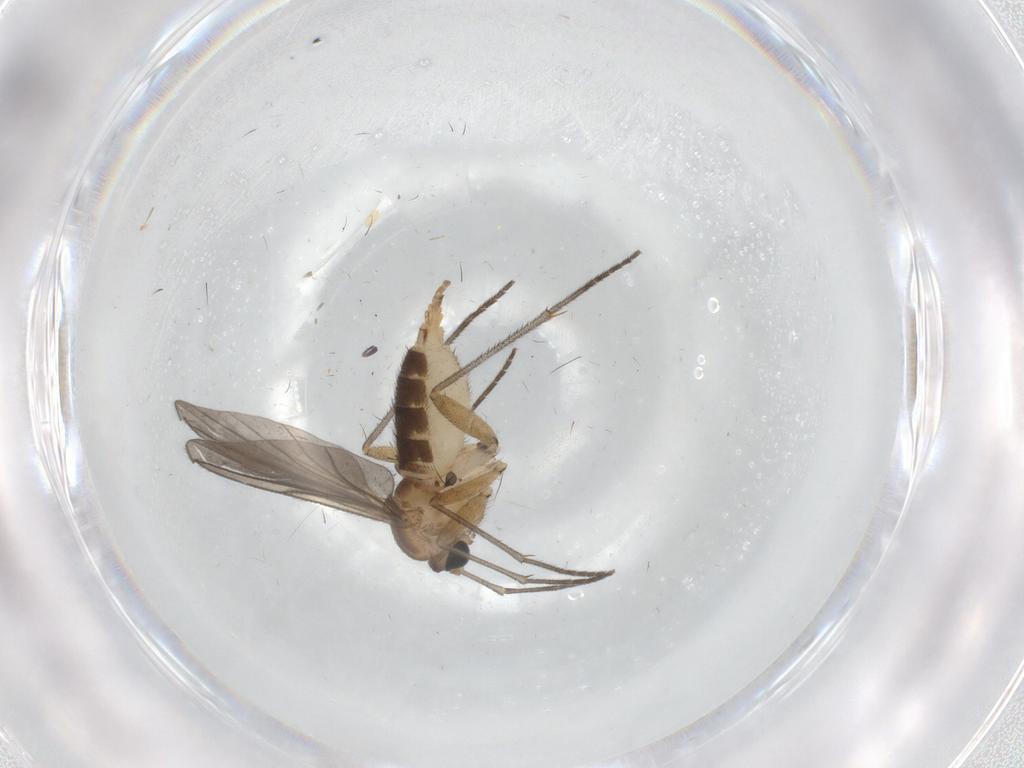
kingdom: Animalia
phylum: Arthropoda
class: Insecta
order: Diptera
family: Sciaridae
